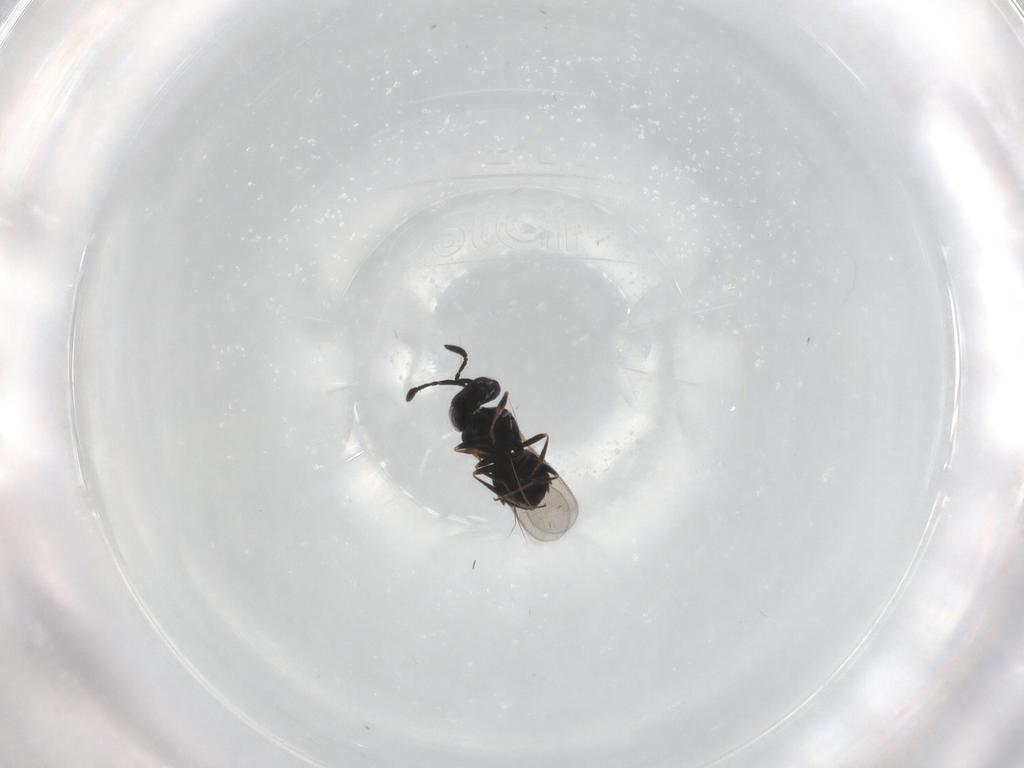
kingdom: Animalia
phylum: Arthropoda
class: Insecta
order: Hymenoptera
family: Scelionidae
